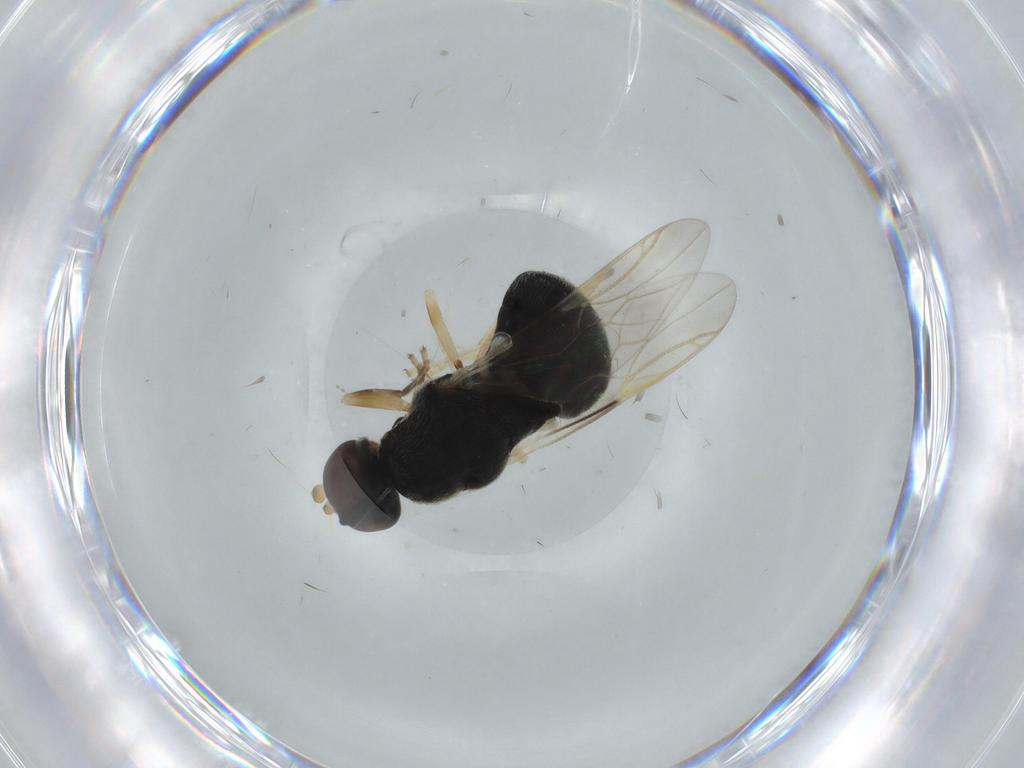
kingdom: Animalia
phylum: Arthropoda
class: Insecta
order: Diptera
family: Stratiomyidae
